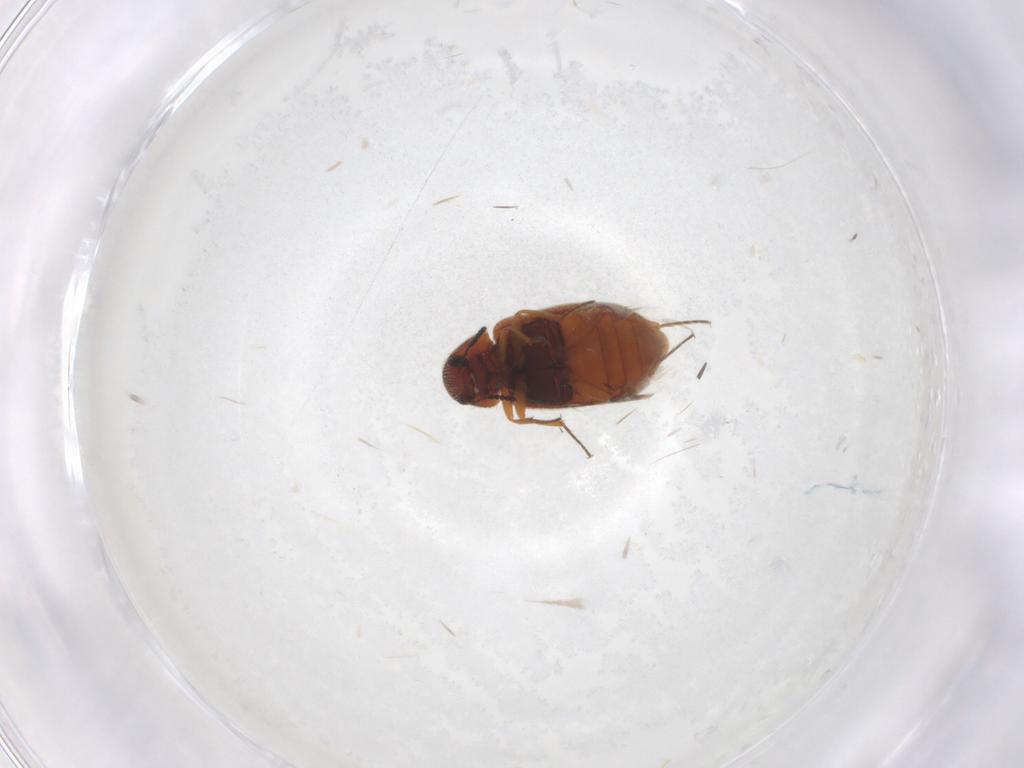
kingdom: Animalia
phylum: Arthropoda
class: Insecta
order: Coleoptera
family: Rhadalidae
